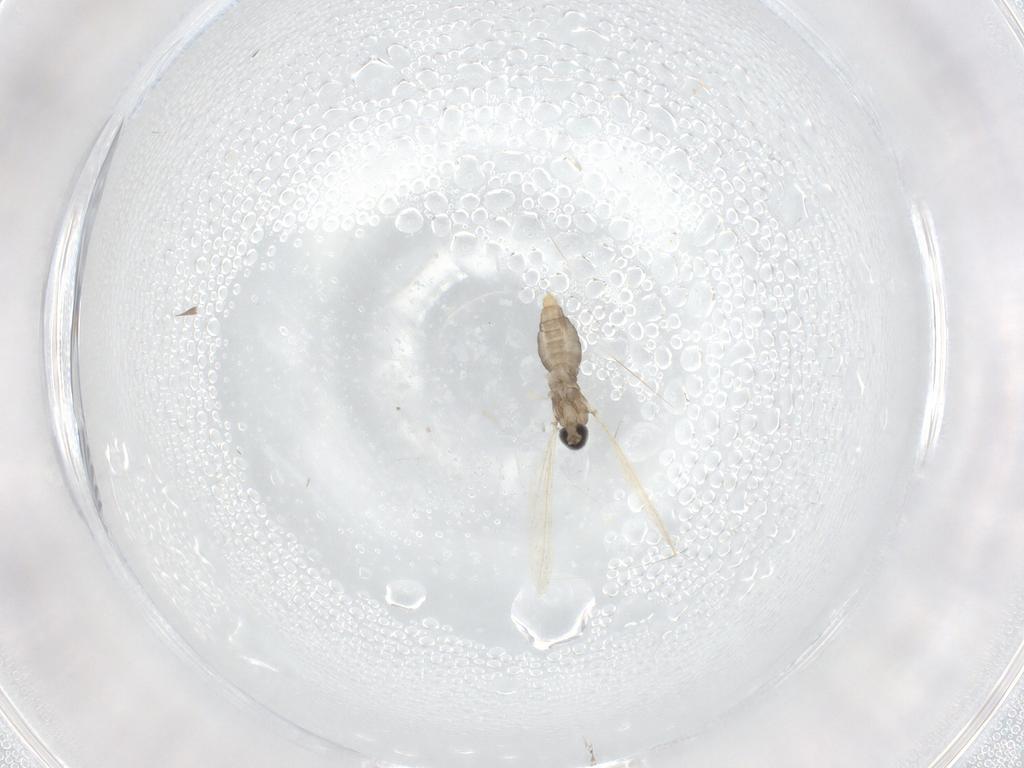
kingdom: Animalia
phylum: Arthropoda
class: Insecta
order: Diptera
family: Cecidomyiidae
